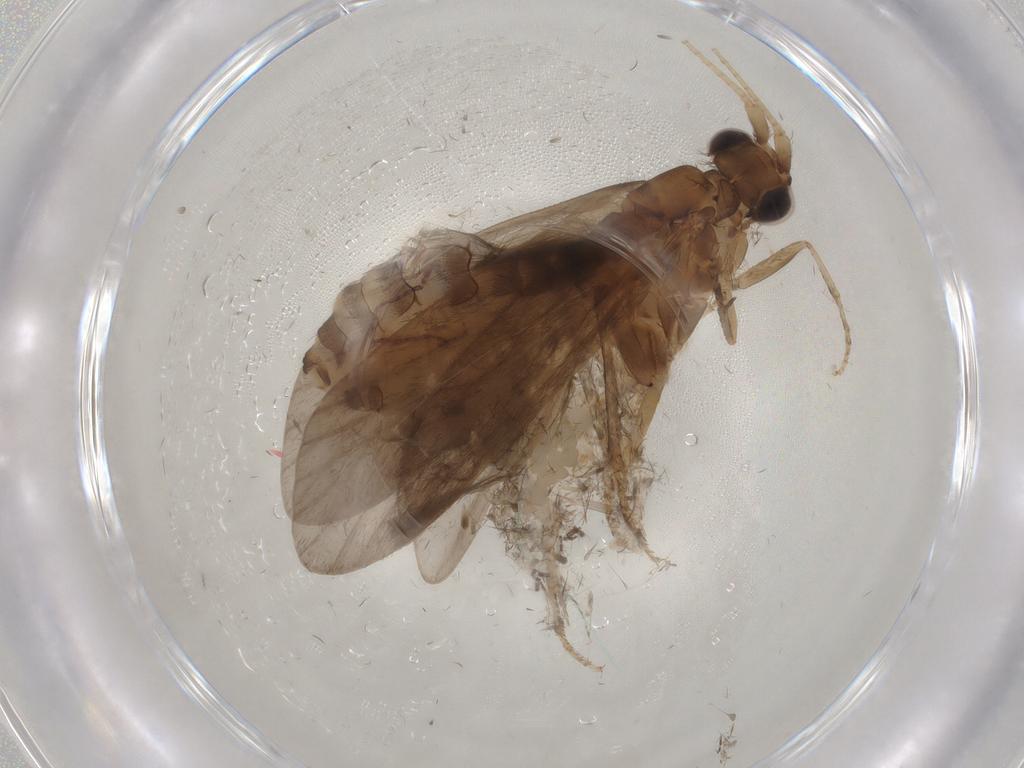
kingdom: Animalia
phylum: Arthropoda
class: Insecta
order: Trichoptera
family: Helicopsychidae
